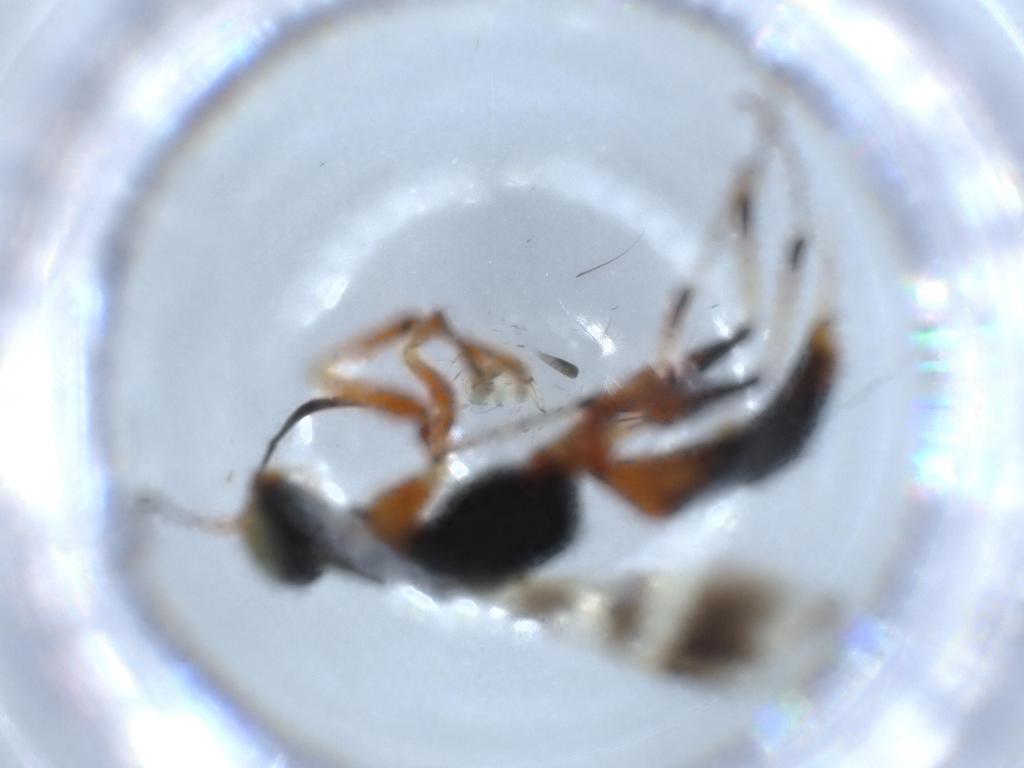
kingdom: Animalia
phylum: Arthropoda
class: Insecta
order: Hymenoptera
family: Dryinidae
